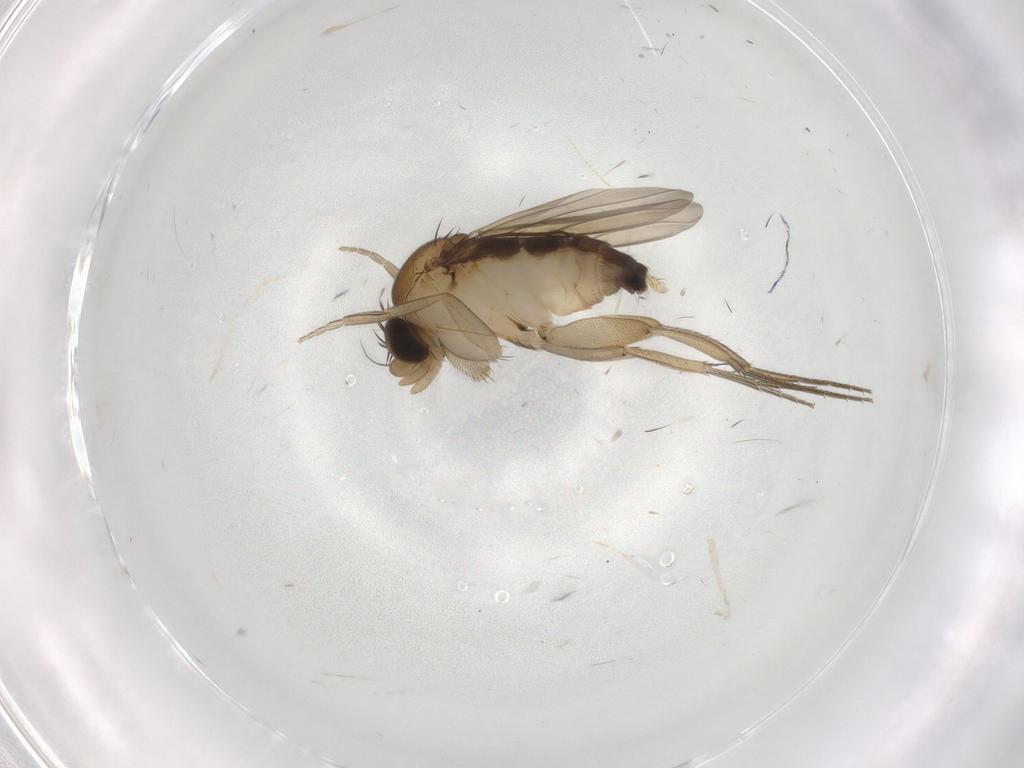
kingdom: Animalia
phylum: Arthropoda
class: Insecta
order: Diptera
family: Phoridae
